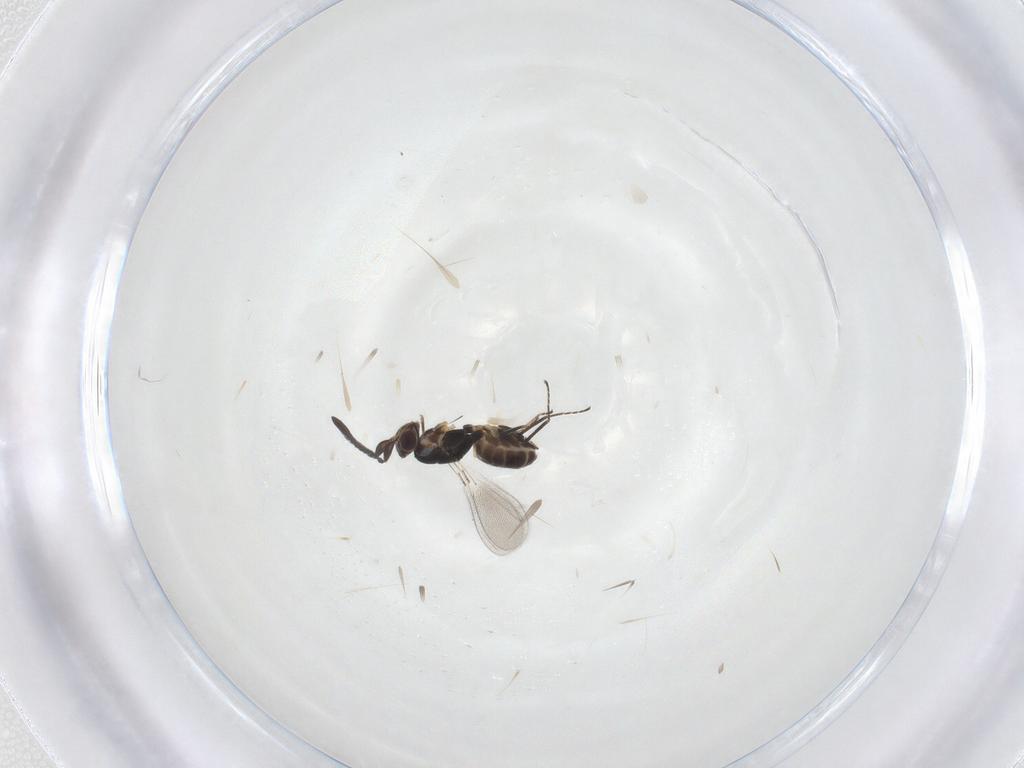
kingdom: Animalia
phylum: Arthropoda
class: Insecta
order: Hymenoptera
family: Mymaridae
